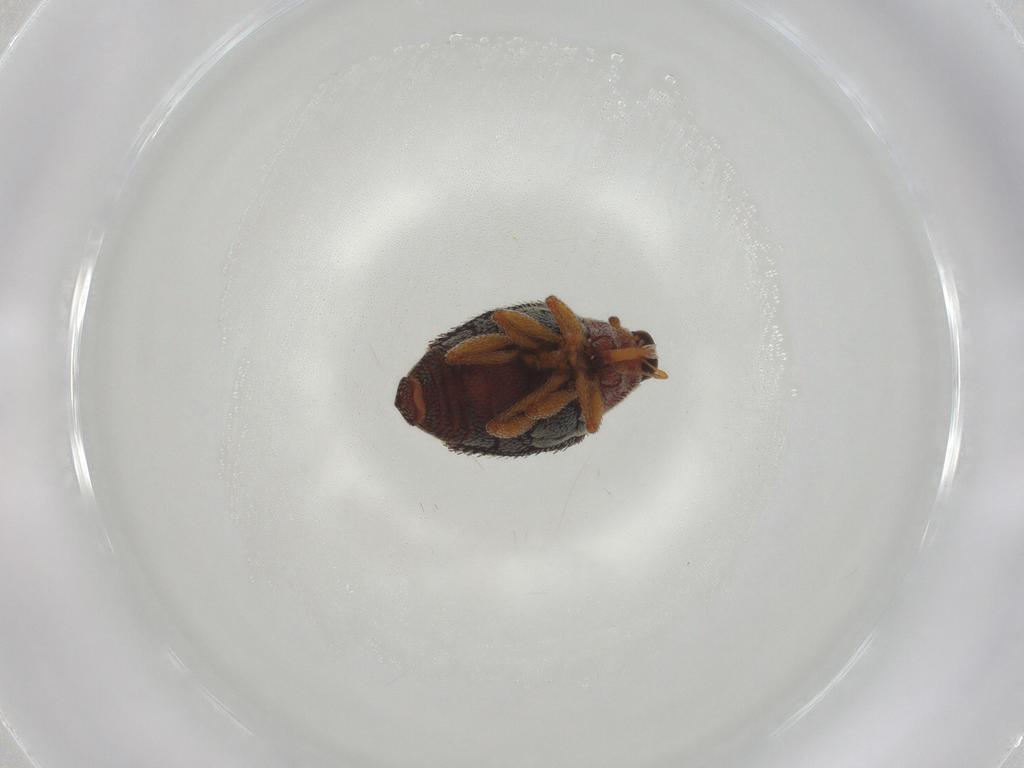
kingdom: Animalia
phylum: Arthropoda
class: Insecta
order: Coleoptera
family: Curculionidae
